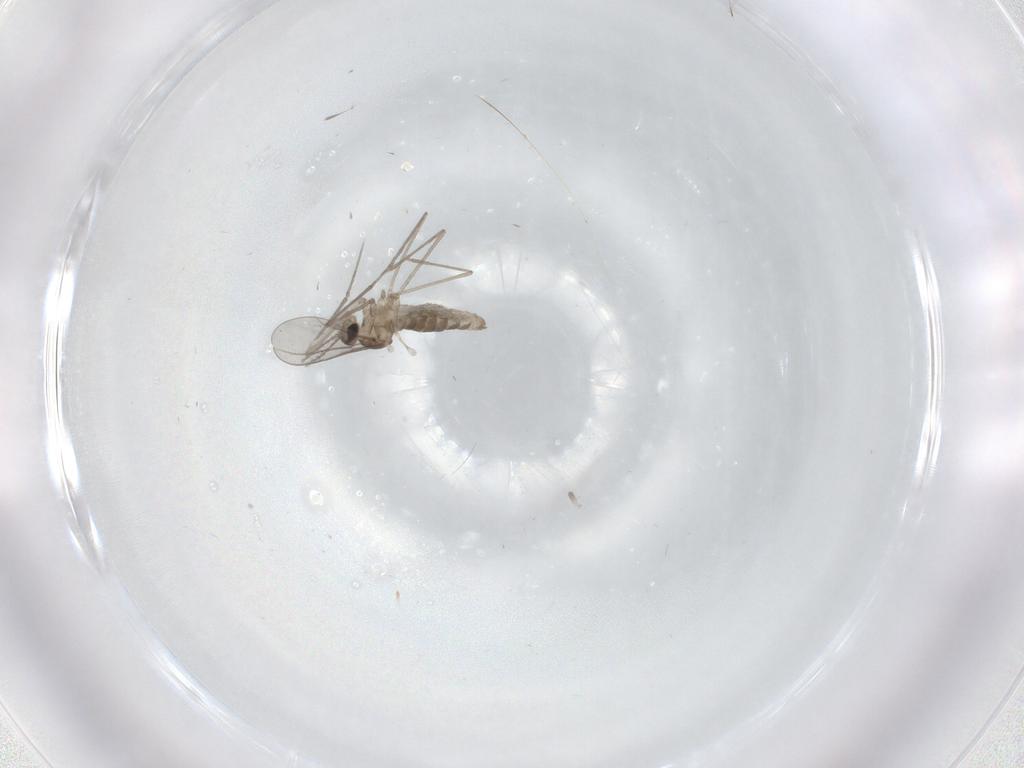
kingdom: Animalia
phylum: Arthropoda
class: Insecta
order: Diptera
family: Cecidomyiidae
